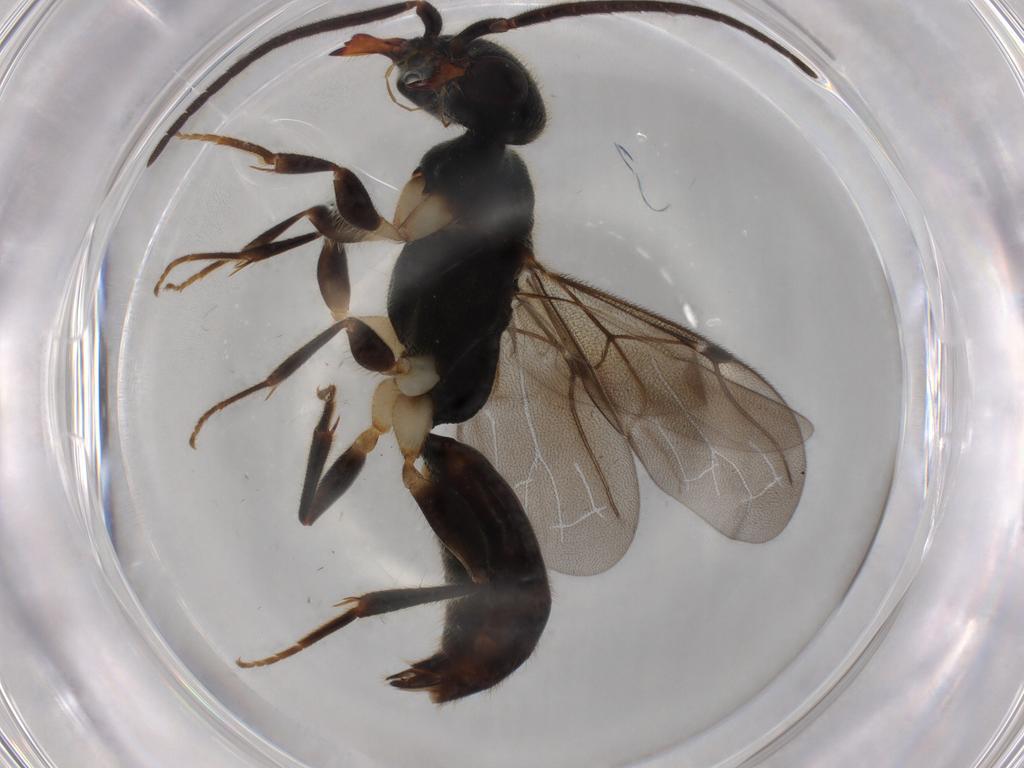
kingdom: Animalia
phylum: Arthropoda
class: Insecta
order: Hymenoptera
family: Bethylidae
